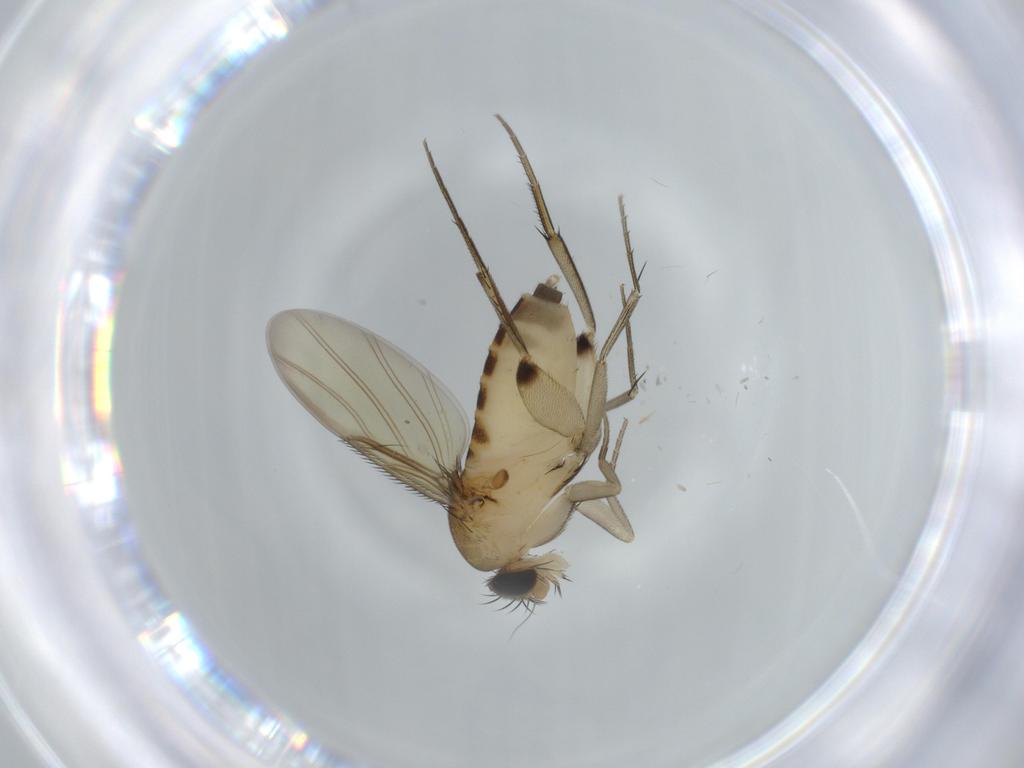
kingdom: Animalia
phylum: Arthropoda
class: Insecta
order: Diptera
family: Phoridae
